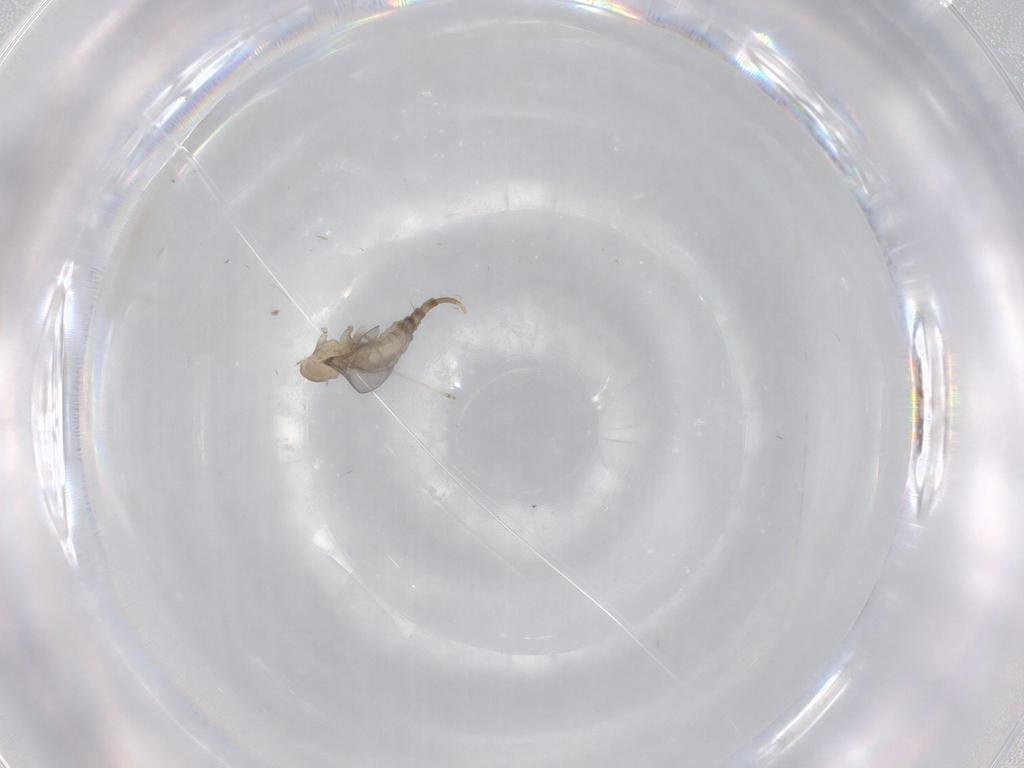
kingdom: Animalia
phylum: Arthropoda
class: Insecta
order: Diptera
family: Cecidomyiidae
